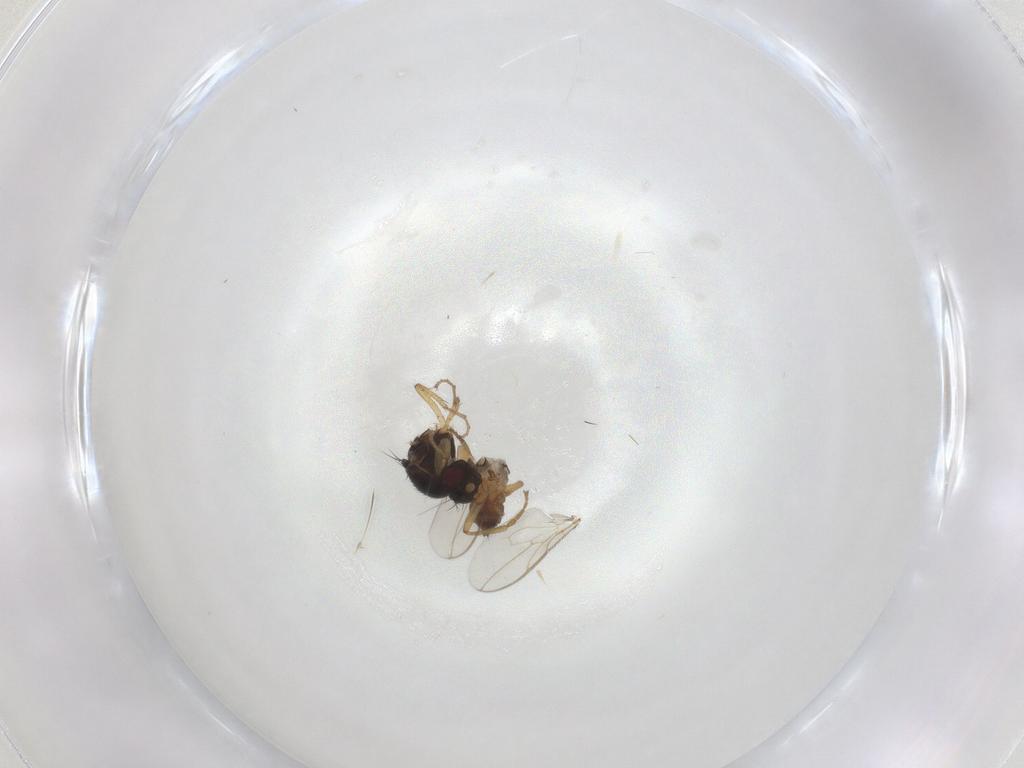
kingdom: Animalia
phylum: Arthropoda
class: Insecta
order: Diptera
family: Sphaeroceridae
